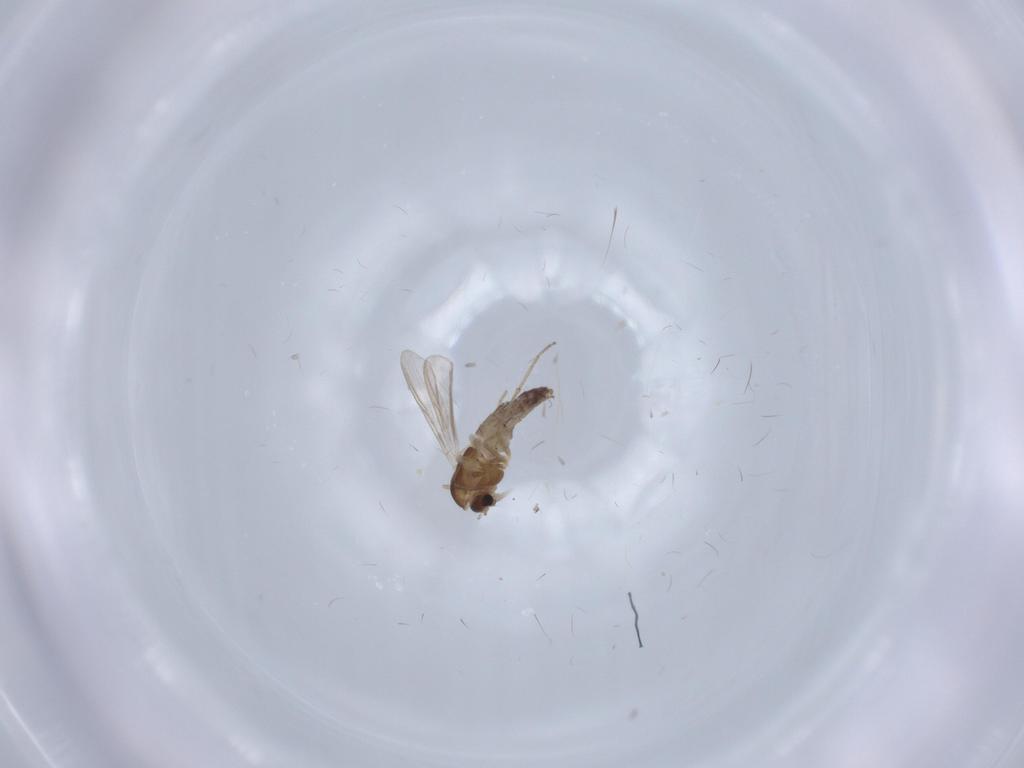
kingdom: Animalia
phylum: Arthropoda
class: Insecta
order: Diptera
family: Chironomidae
